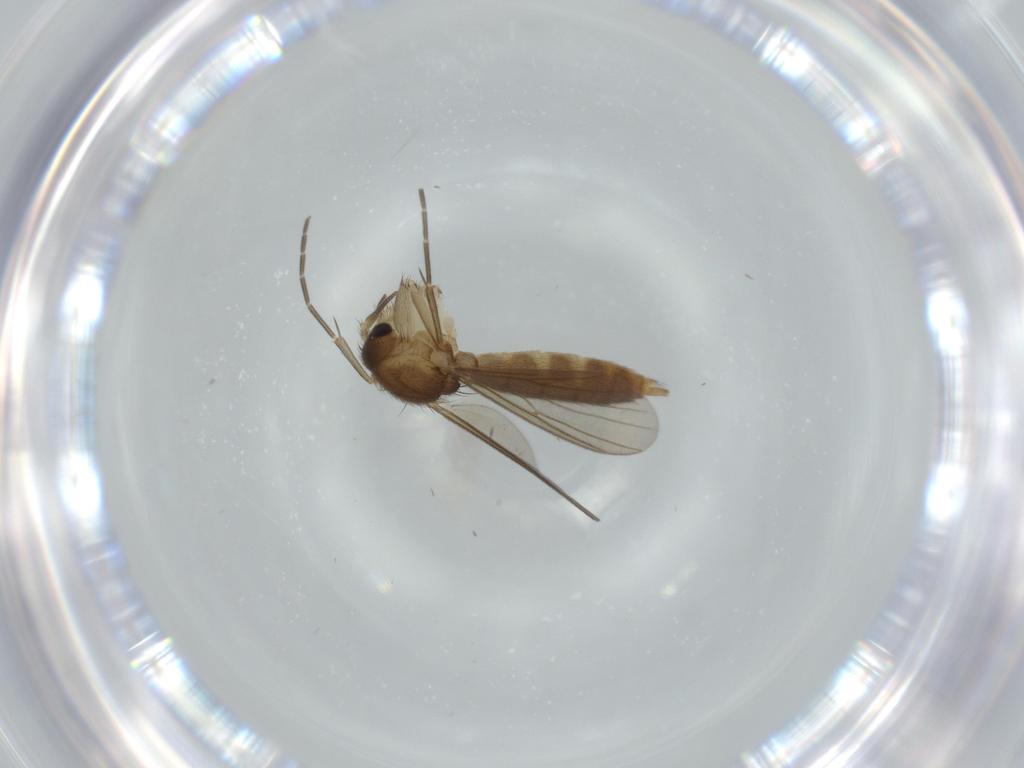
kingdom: Animalia
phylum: Arthropoda
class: Insecta
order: Diptera
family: Dolichopodidae
